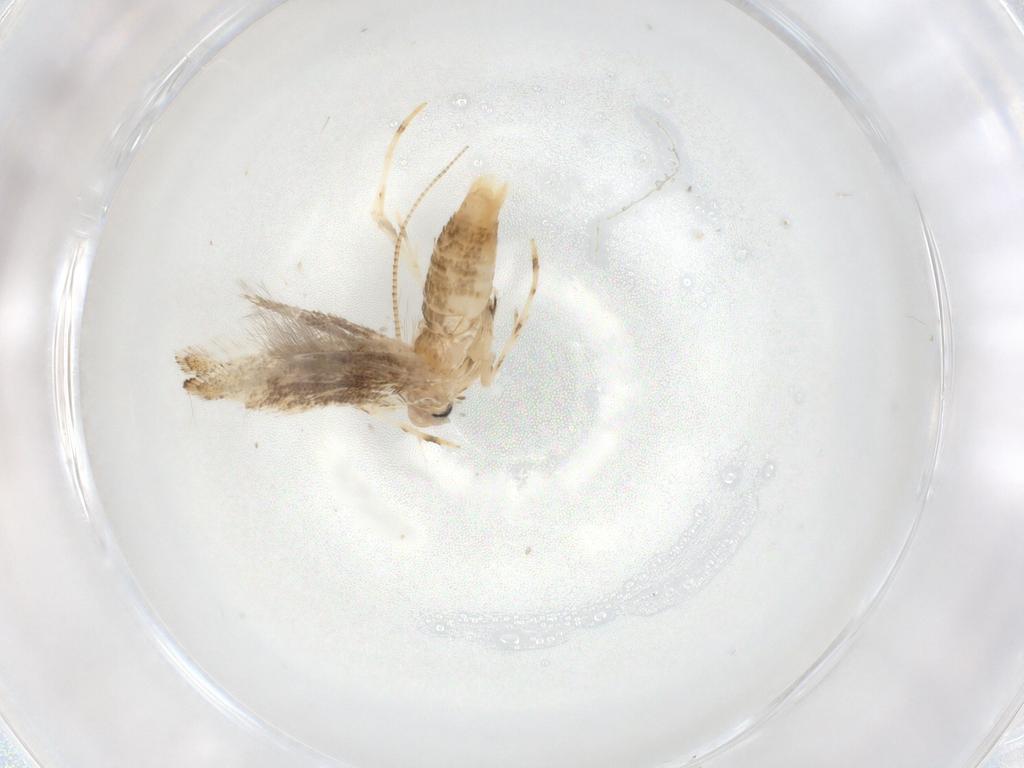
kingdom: Animalia
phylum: Arthropoda
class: Insecta
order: Lepidoptera
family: Gracillariidae
